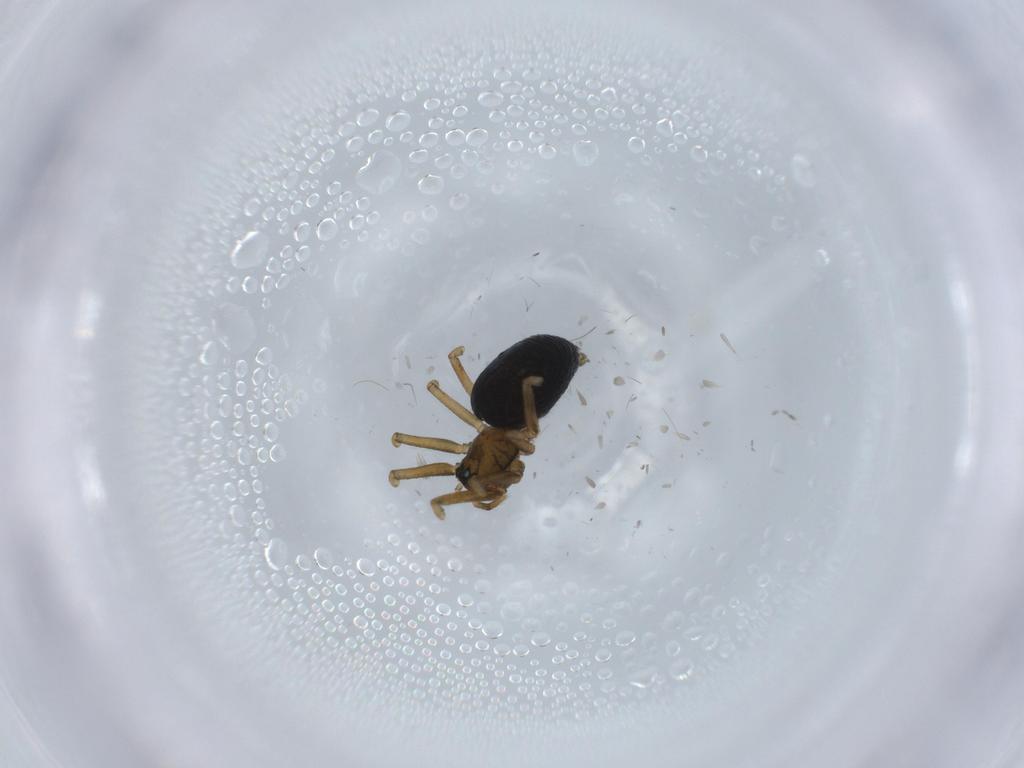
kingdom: Animalia
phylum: Arthropoda
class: Arachnida
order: Araneae
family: Linyphiidae
